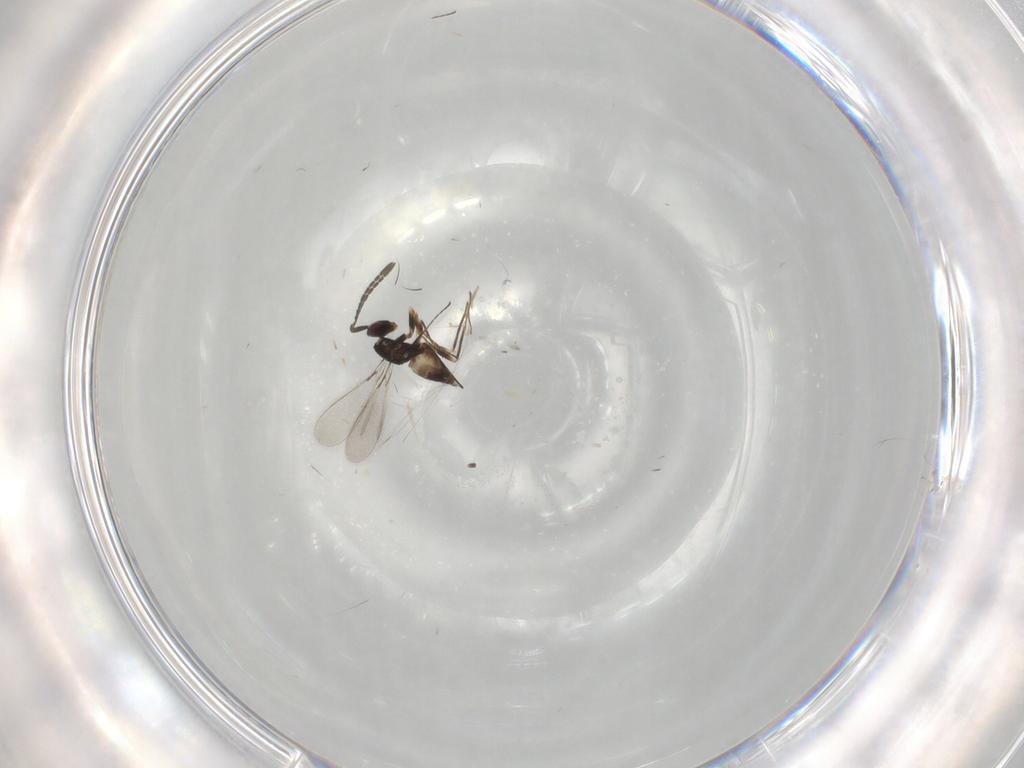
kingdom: Animalia
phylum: Arthropoda
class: Insecta
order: Hymenoptera
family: Mymaridae
